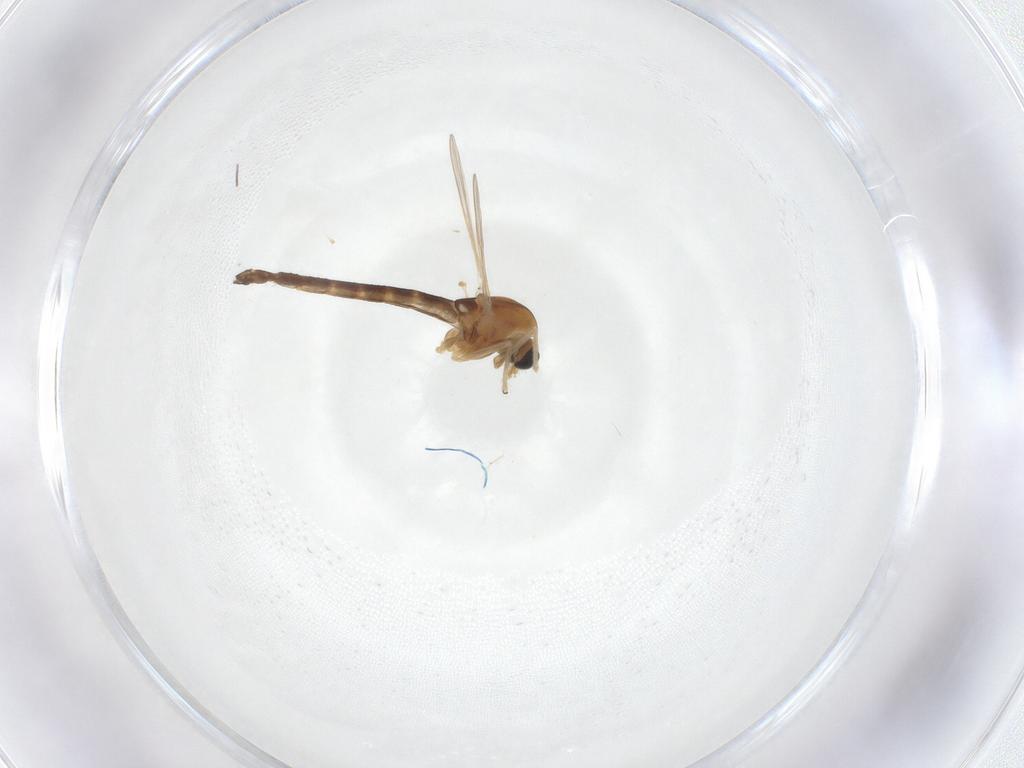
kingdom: Animalia
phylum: Arthropoda
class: Insecta
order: Diptera
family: Chironomidae
